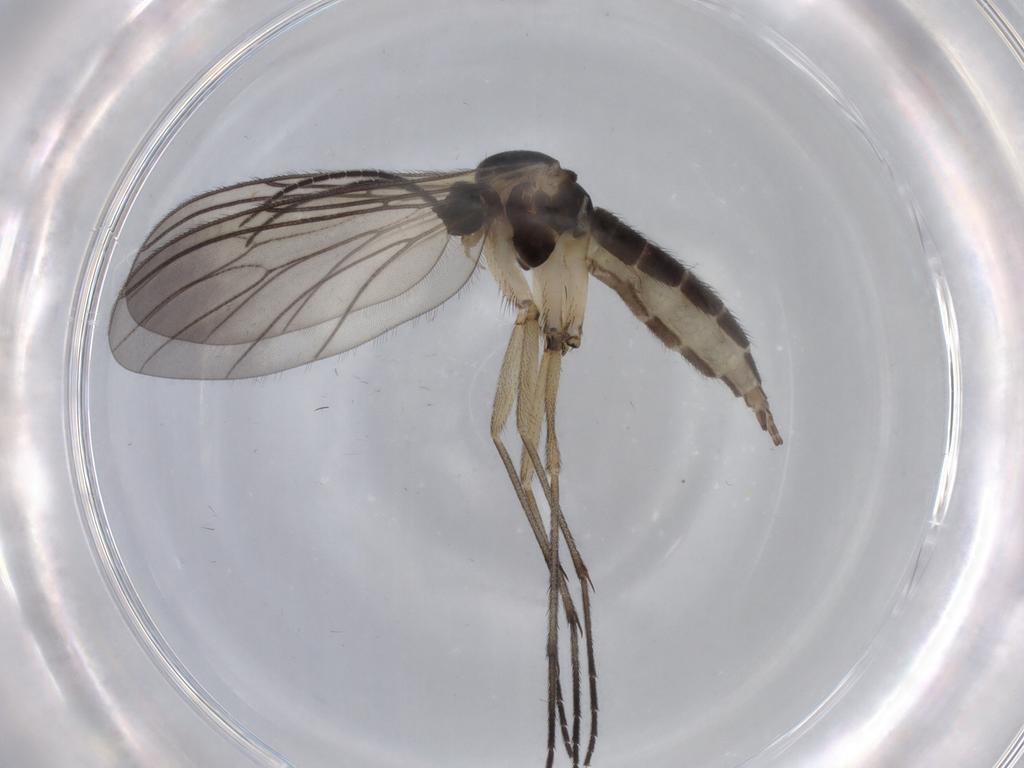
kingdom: Animalia
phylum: Arthropoda
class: Insecta
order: Diptera
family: Sciaridae
